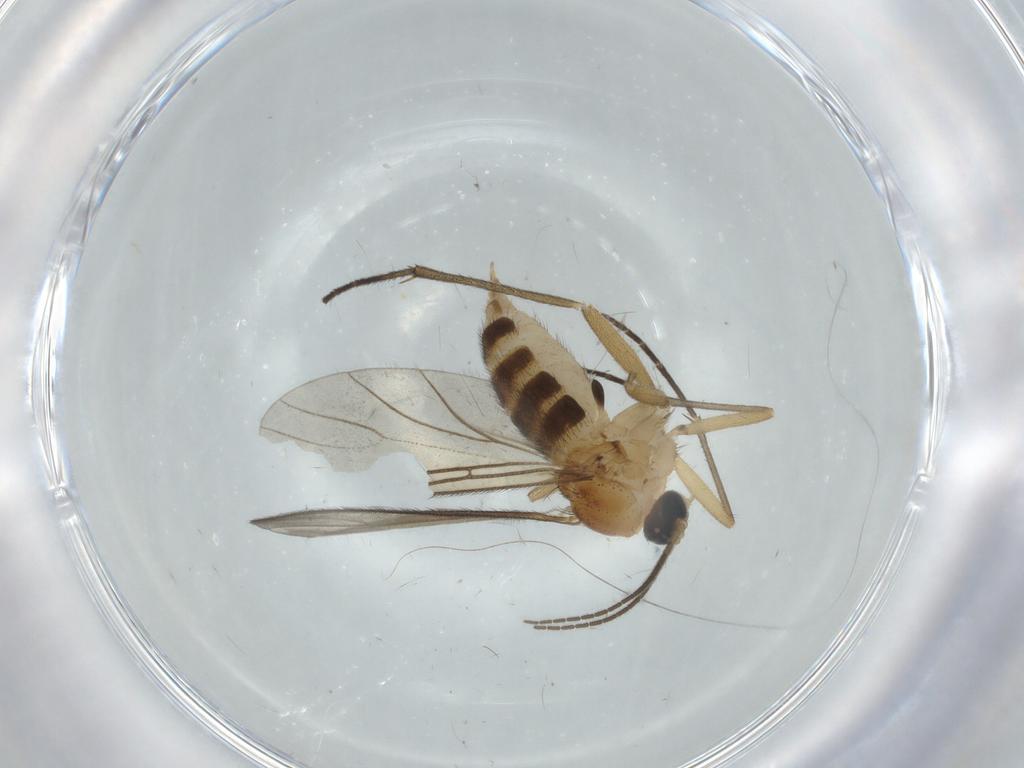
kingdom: Animalia
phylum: Arthropoda
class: Insecta
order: Diptera
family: Sciaridae
